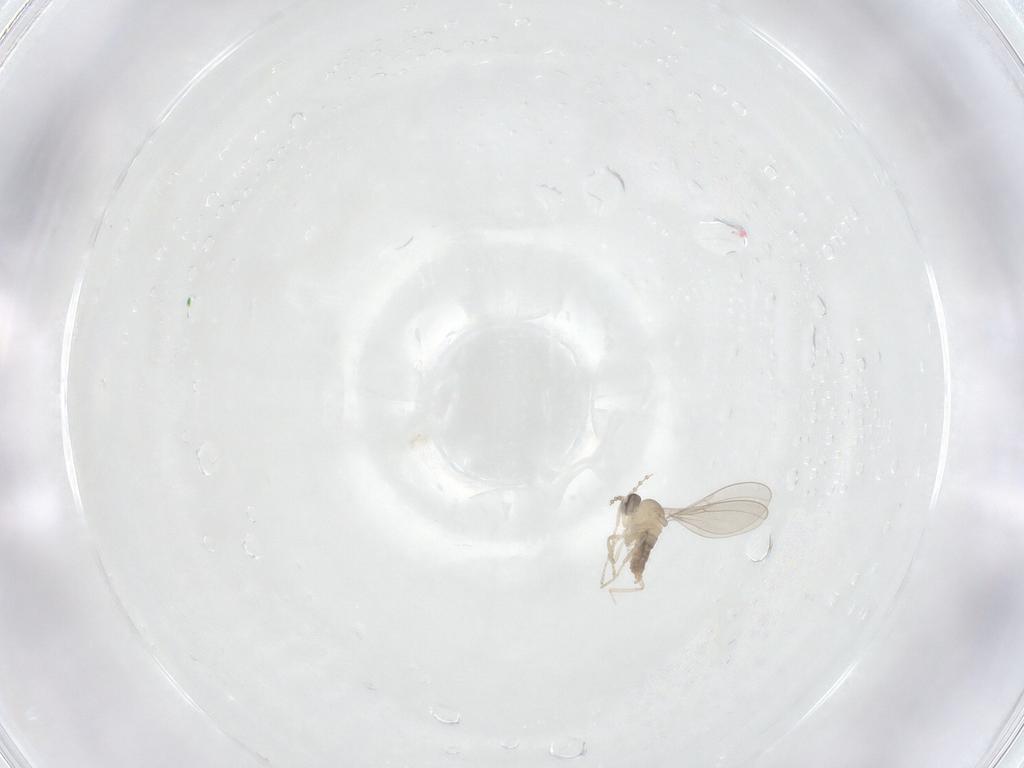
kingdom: Animalia
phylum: Arthropoda
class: Insecta
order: Diptera
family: Cecidomyiidae
